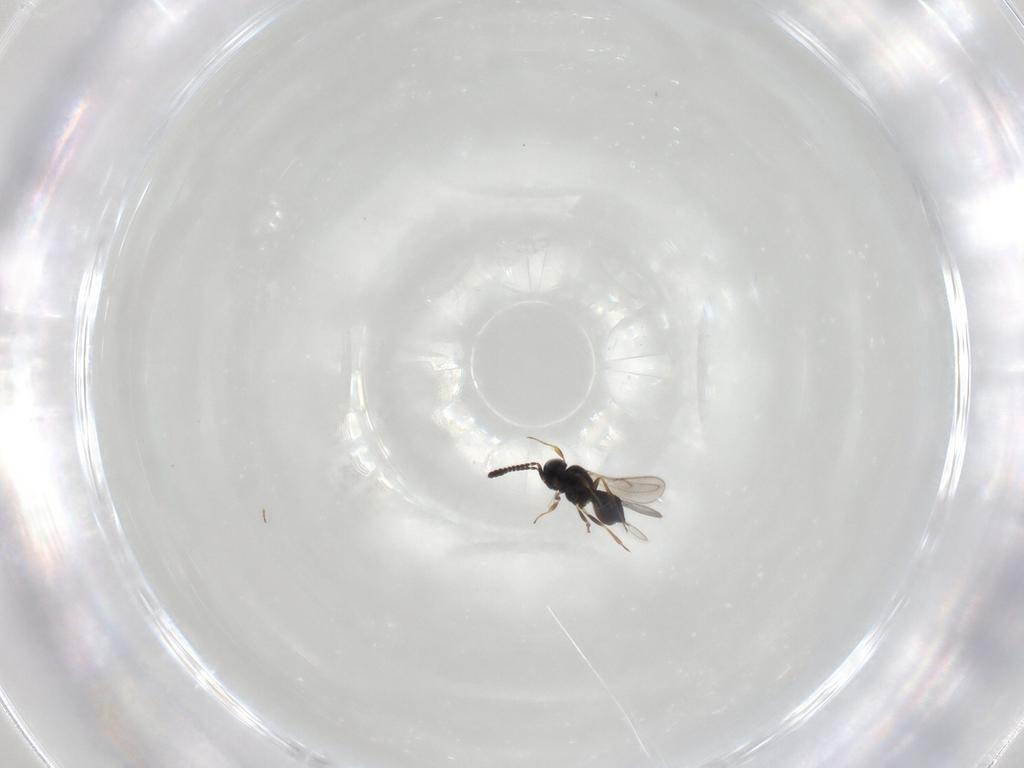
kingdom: Animalia
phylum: Arthropoda
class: Insecta
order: Hymenoptera
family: Scelionidae
